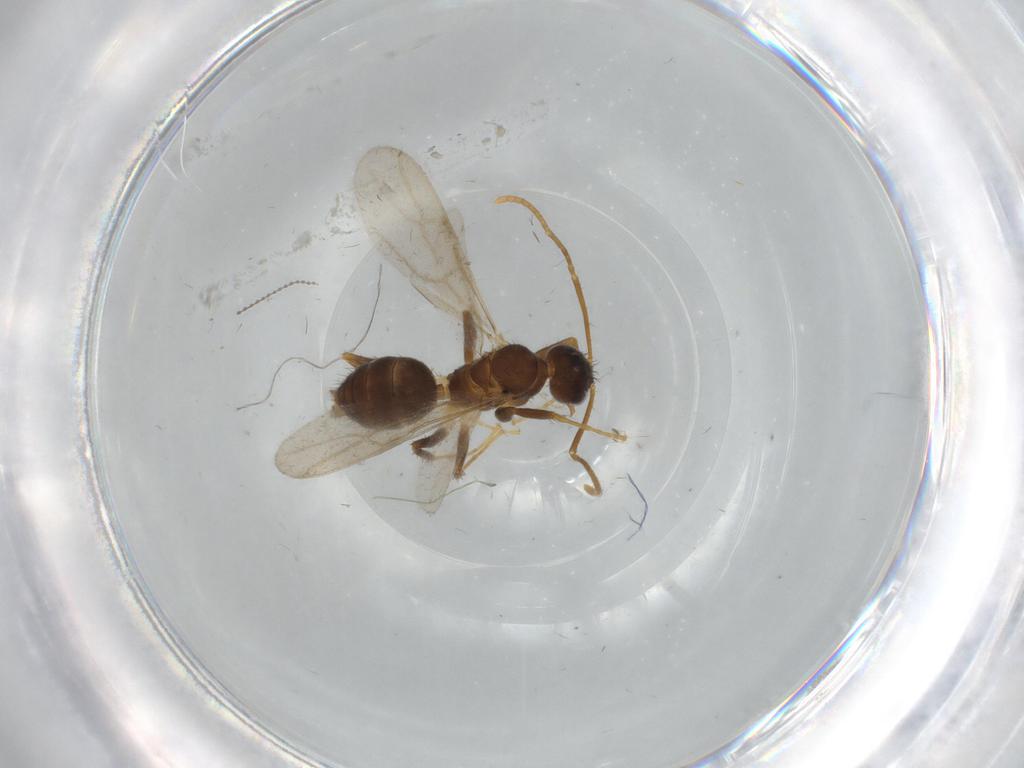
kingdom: Animalia
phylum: Arthropoda
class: Insecta
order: Hymenoptera
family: Formicidae
